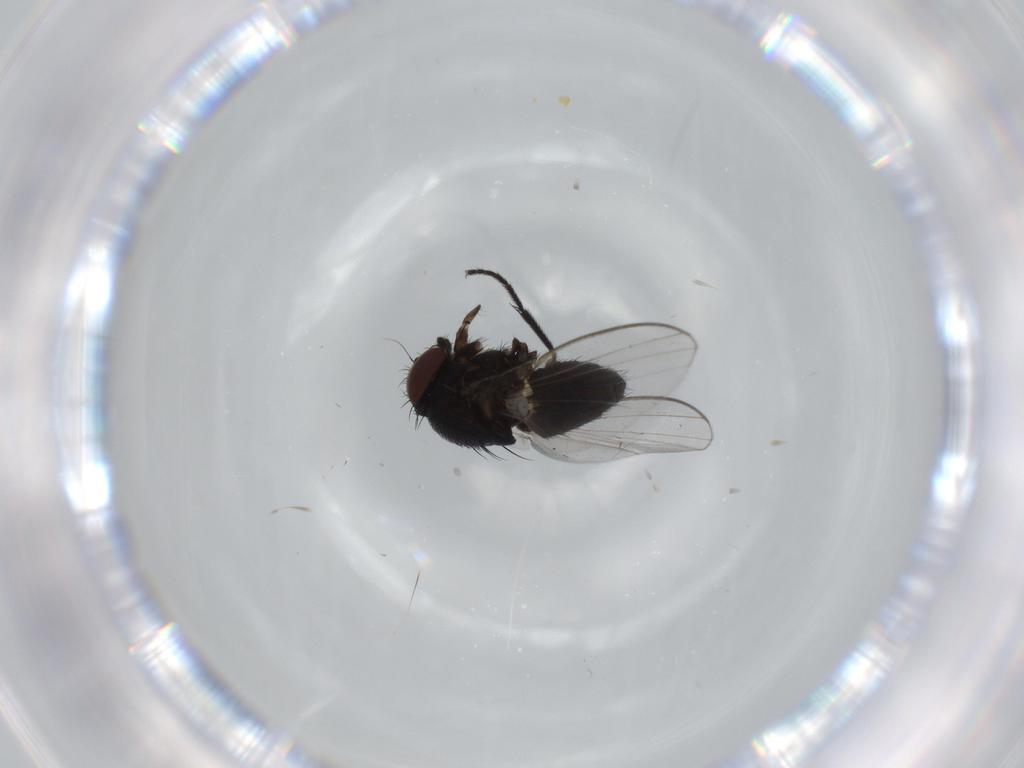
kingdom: Animalia
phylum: Arthropoda
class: Insecta
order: Diptera
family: Milichiidae
